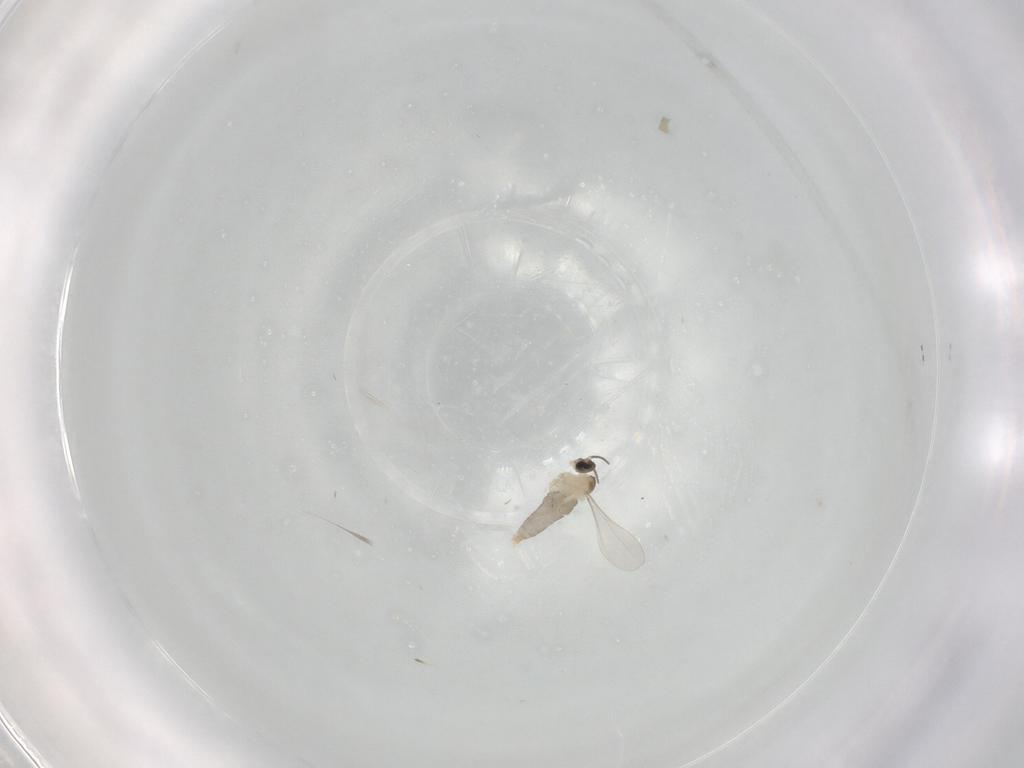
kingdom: Animalia
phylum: Arthropoda
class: Insecta
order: Diptera
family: Cecidomyiidae
